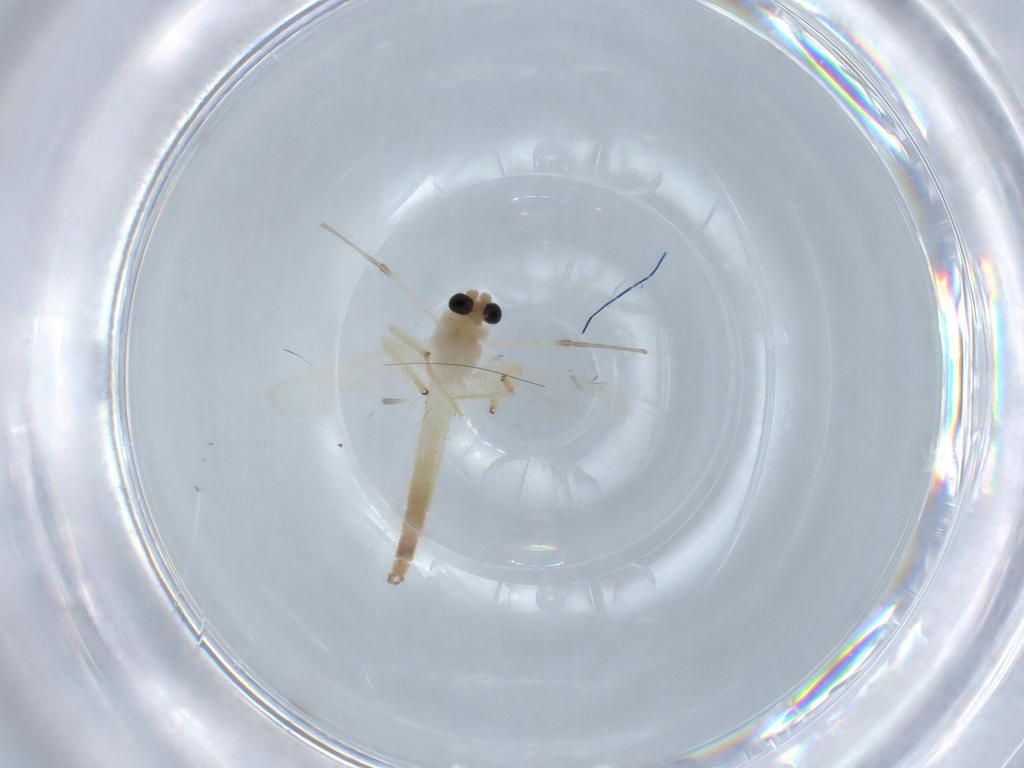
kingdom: Animalia
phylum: Arthropoda
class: Insecta
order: Diptera
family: Chironomidae
